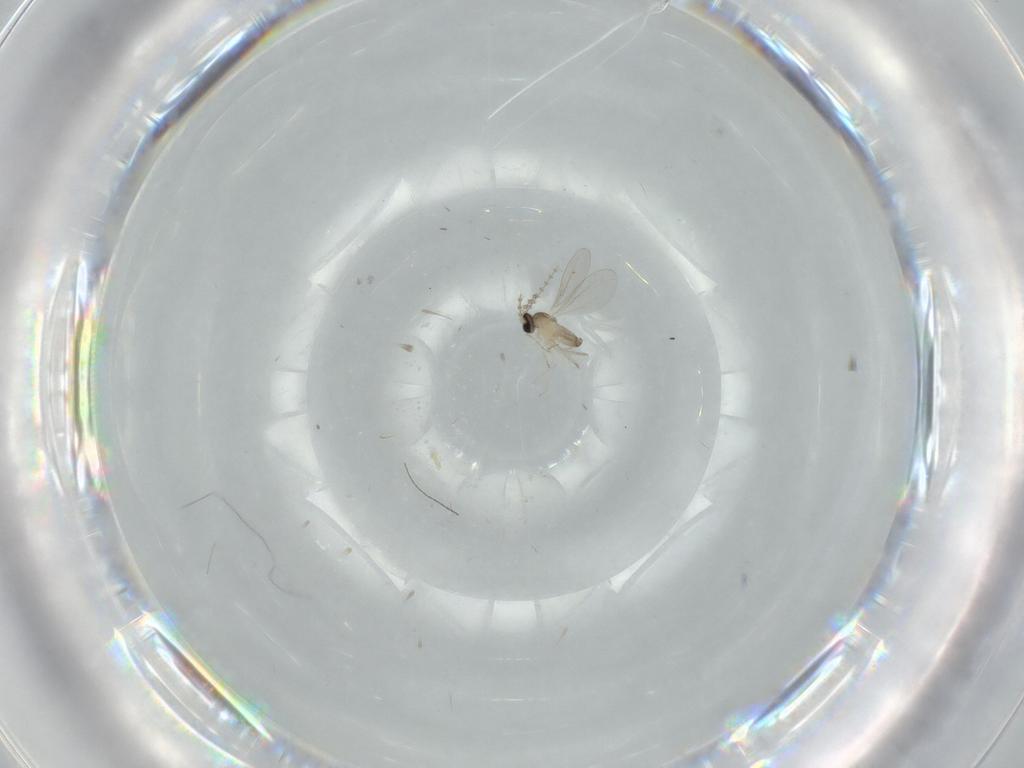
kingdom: Animalia
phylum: Arthropoda
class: Insecta
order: Diptera
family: Cecidomyiidae
